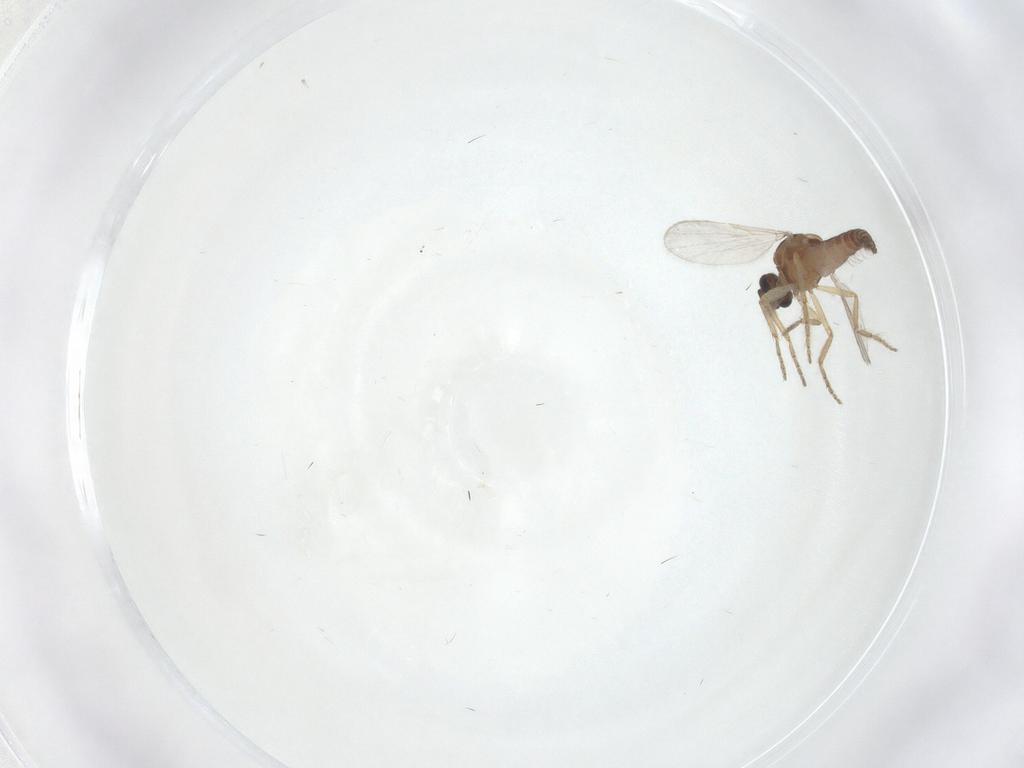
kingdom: Animalia
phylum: Arthropoda
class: Insecta
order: Diptera
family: Ceratopogonidae
